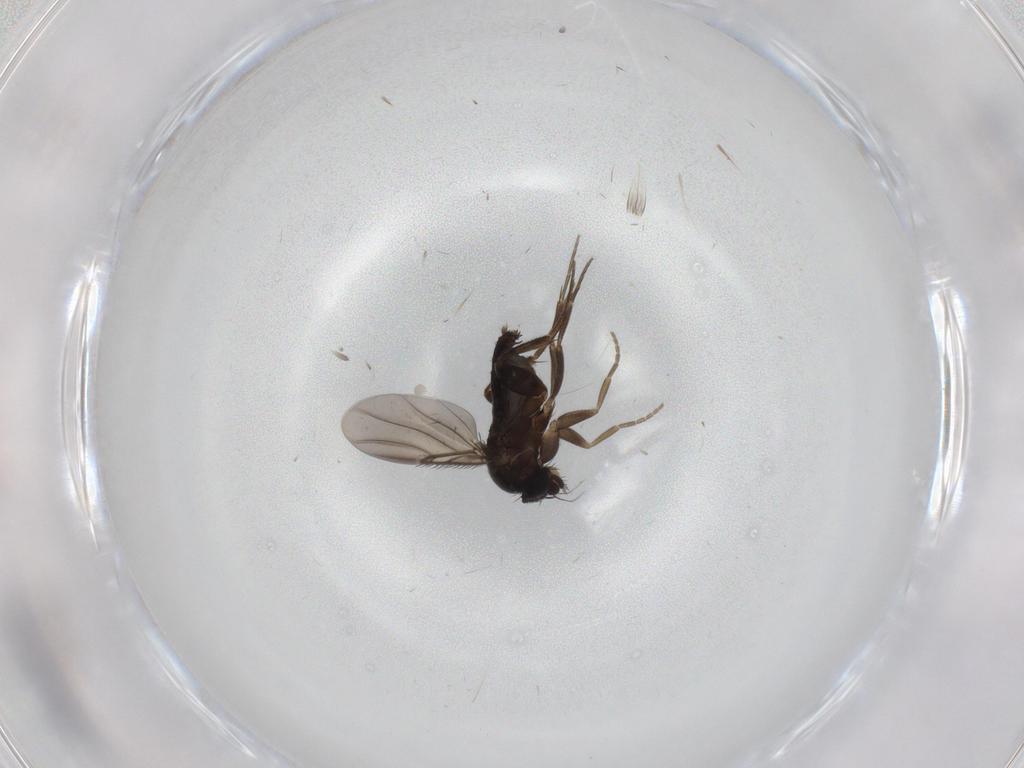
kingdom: Animalia
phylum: Arthropoda
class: Insecta
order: Diptera
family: Phoridae
